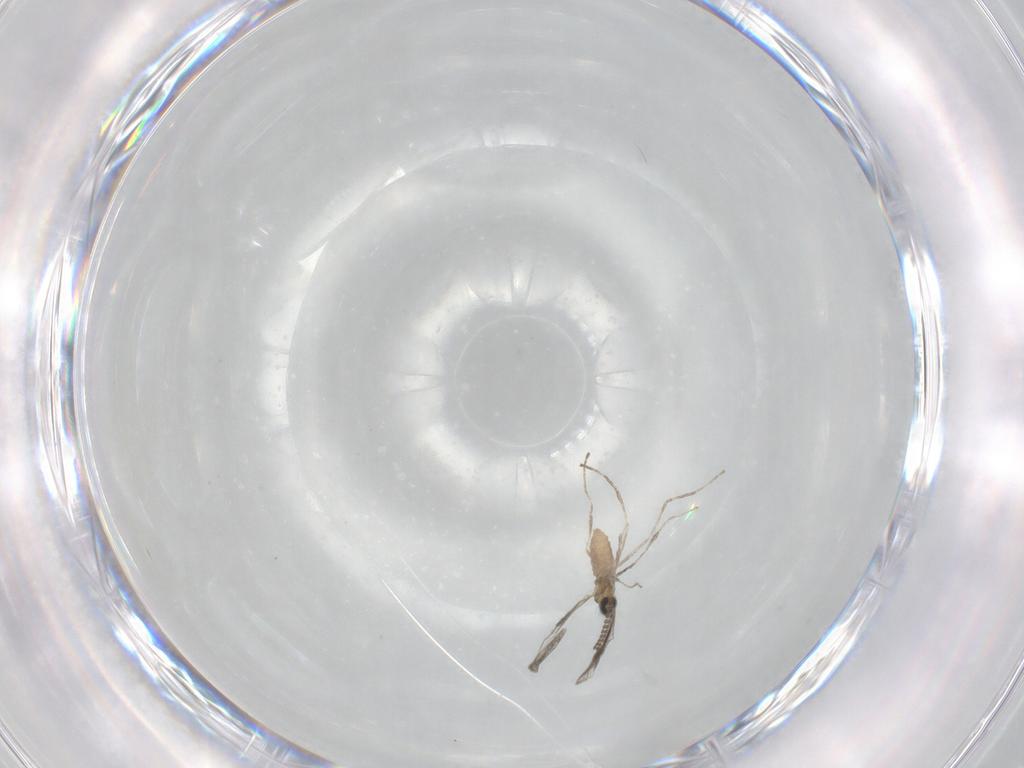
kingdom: Animalia
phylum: Arthropoda
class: Insecta
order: Diptera
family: Cecidomyiidae
